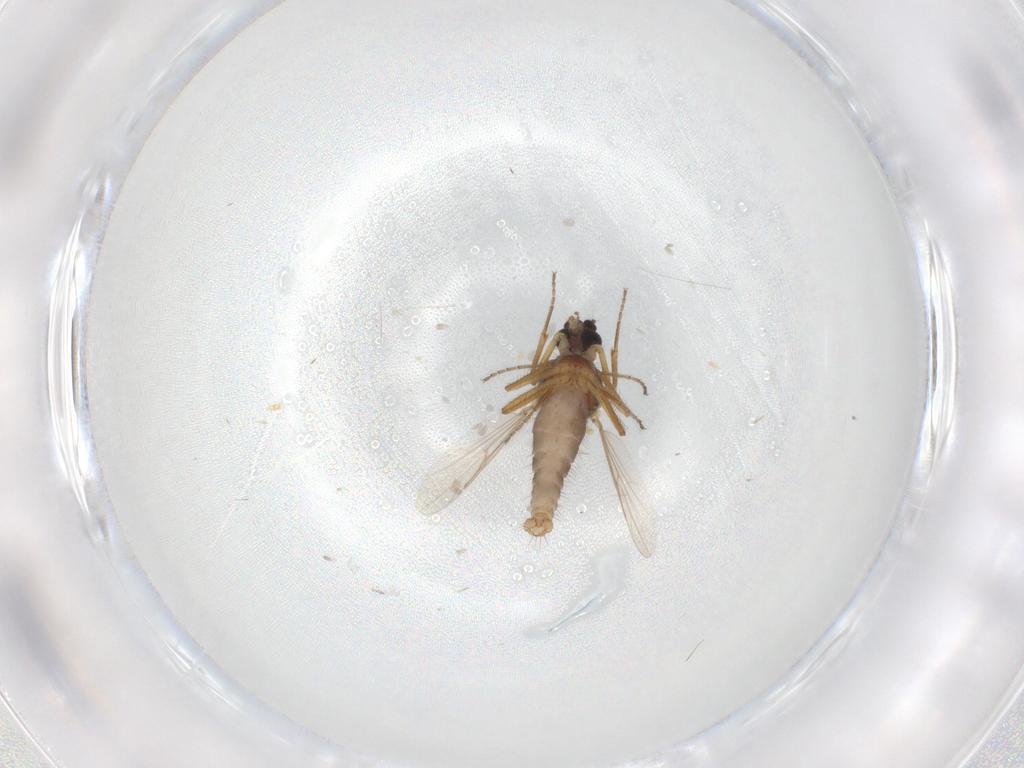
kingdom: Animalia
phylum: Arthropoda
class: Insecta
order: Diptera
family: Ceratopogonidae
